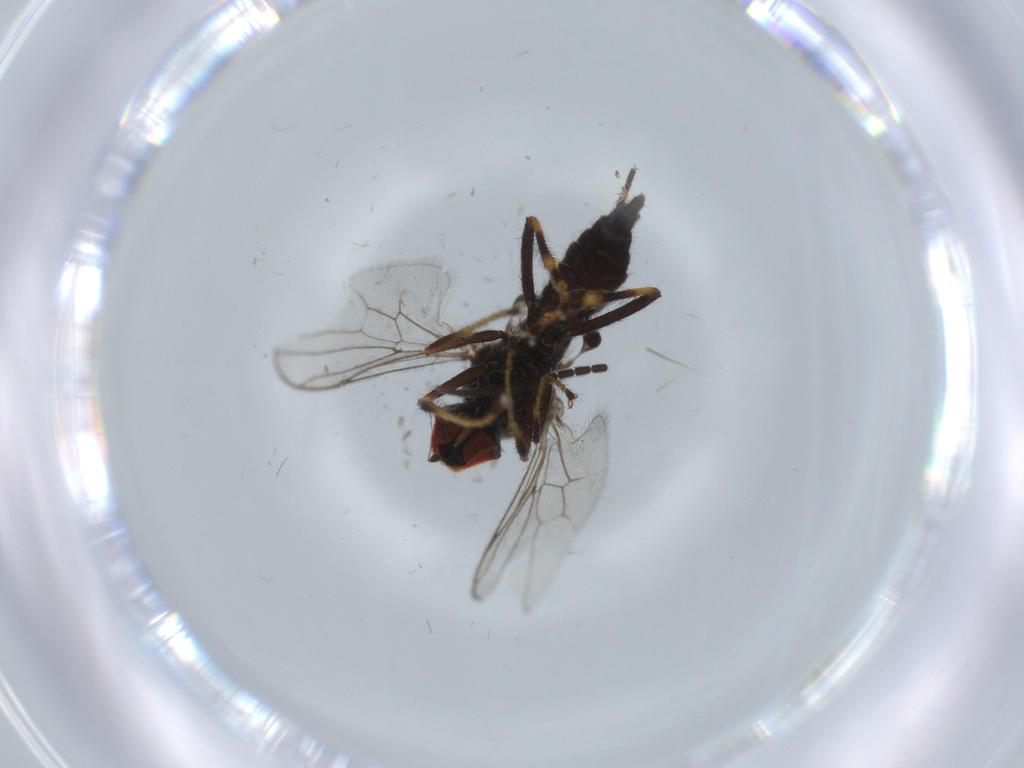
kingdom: Animalia
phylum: Arthropoda
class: Insecta
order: Diptera
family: Hybotidae
